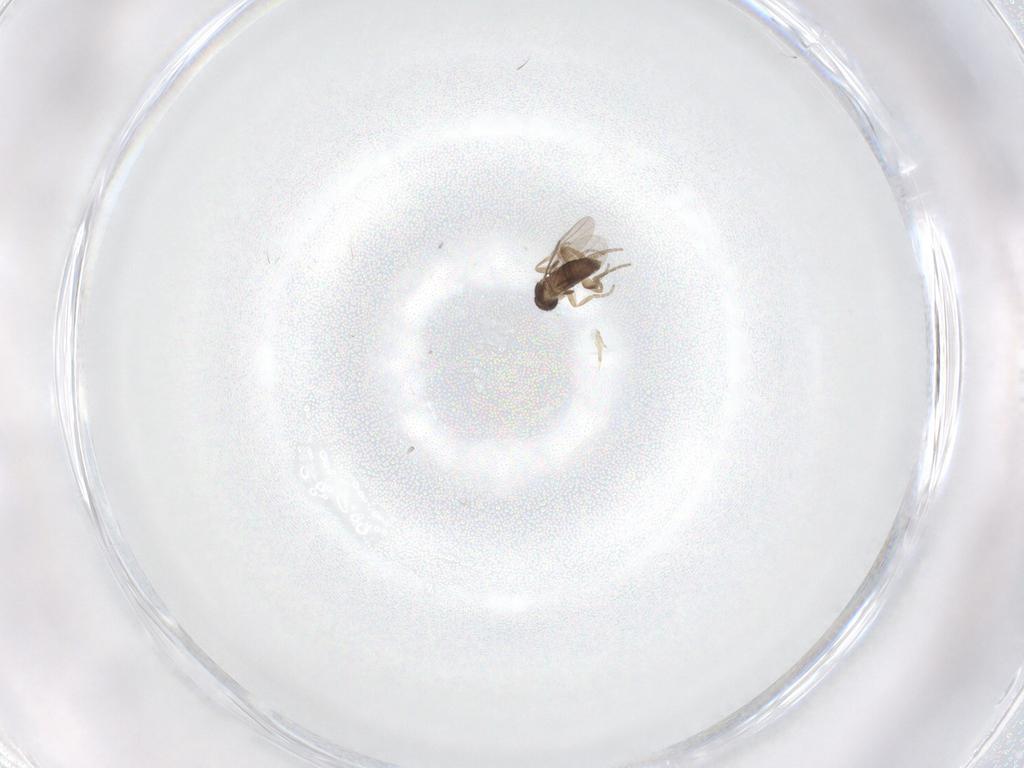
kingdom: Animalia
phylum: Arthropoda
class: Insecta
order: Diptera
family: Phoridae
